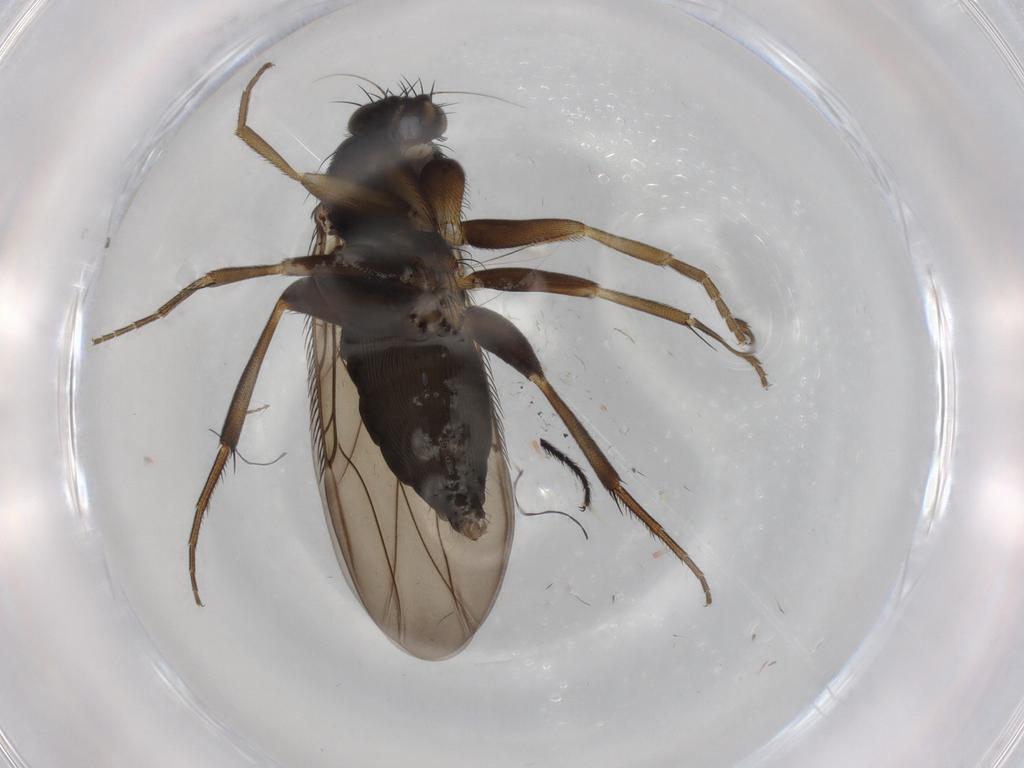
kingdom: Animalia
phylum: Arthropoda
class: Insecta
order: Diptera
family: Phoridae
